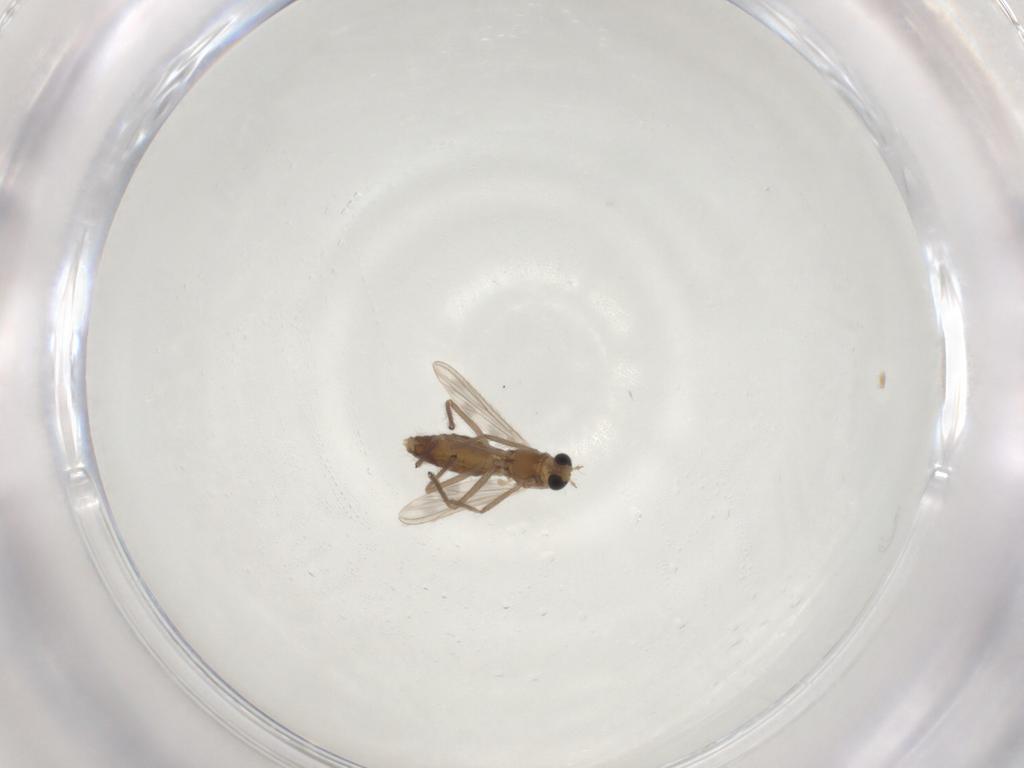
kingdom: Animalia
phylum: Arthropoda
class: Insecta
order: Diptera
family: Chironomidae
